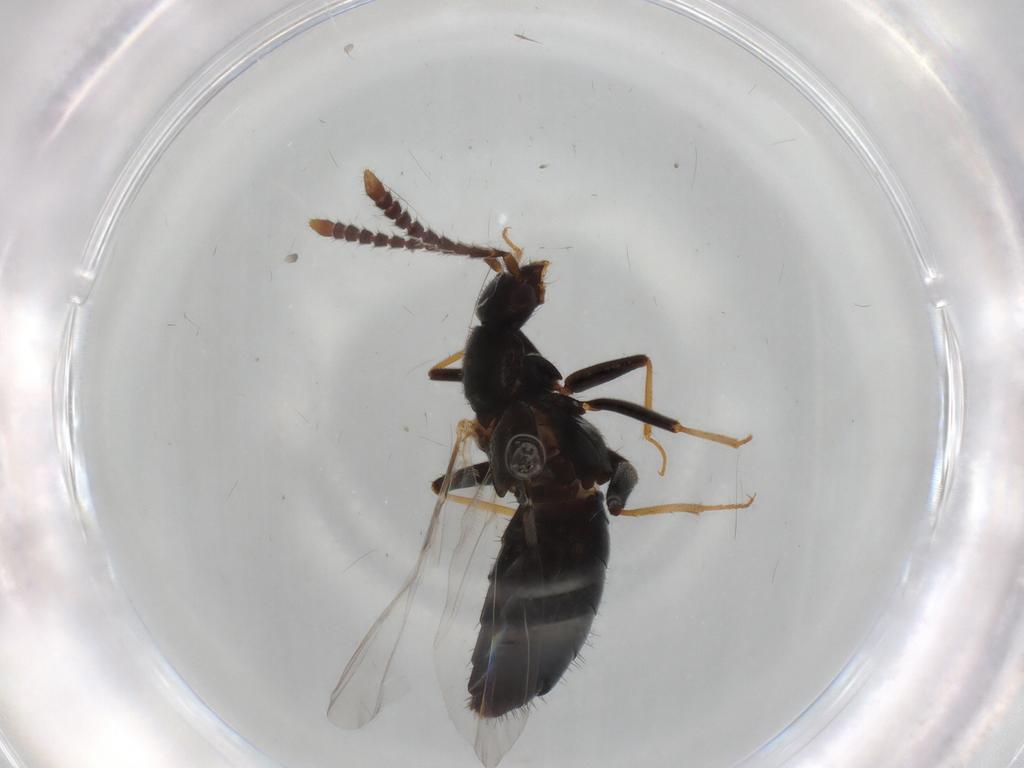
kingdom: Animalia
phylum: Arthropoda
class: Insecta
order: Coleoptera
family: Staphylinidae
